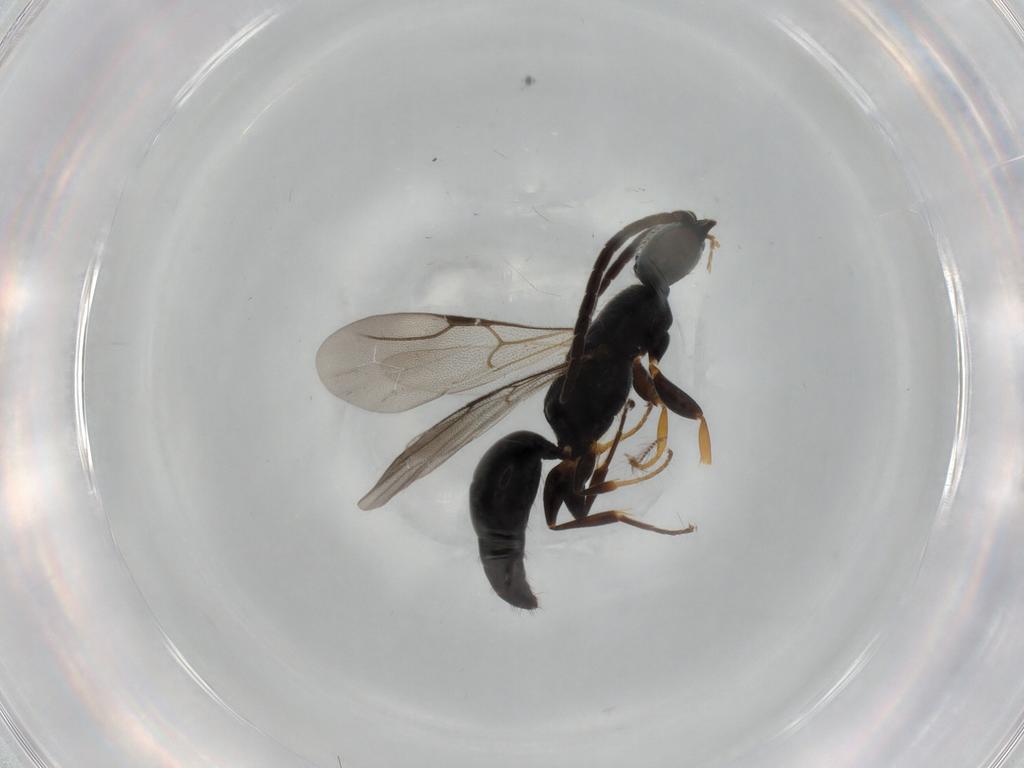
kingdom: Animalia
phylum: Arthropoda
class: Insecta
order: Hymenoptera
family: Bethylidae
